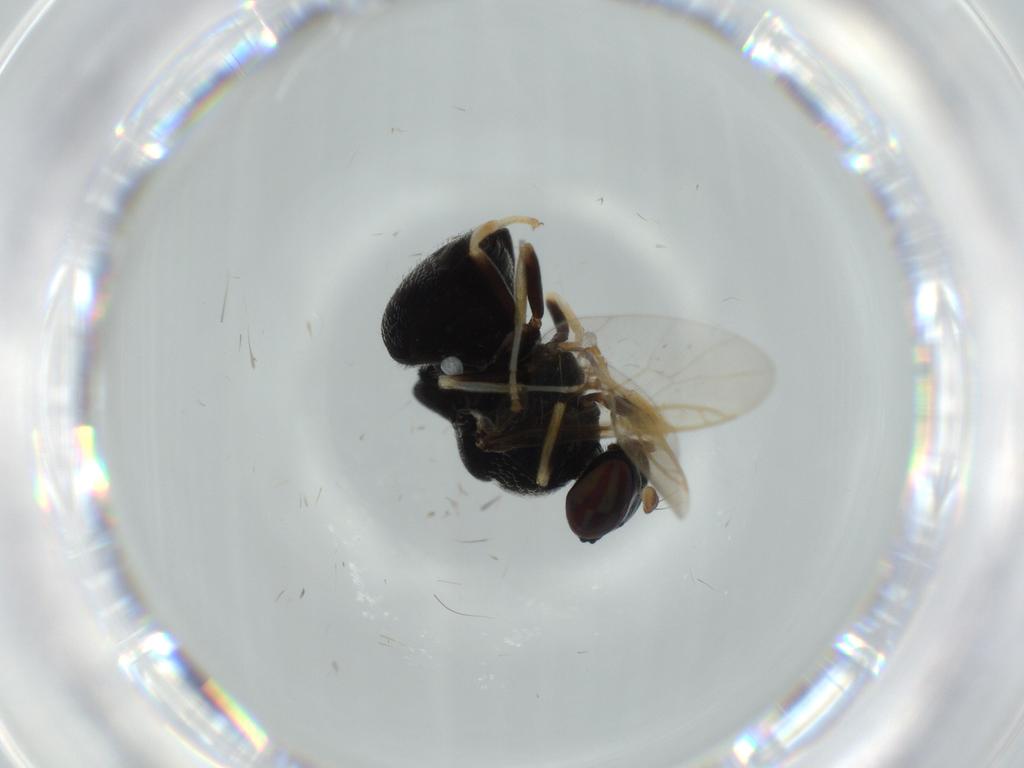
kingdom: Animalia
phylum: Arthropoda
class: Insecta
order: Diptera
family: Stratiomyidae
